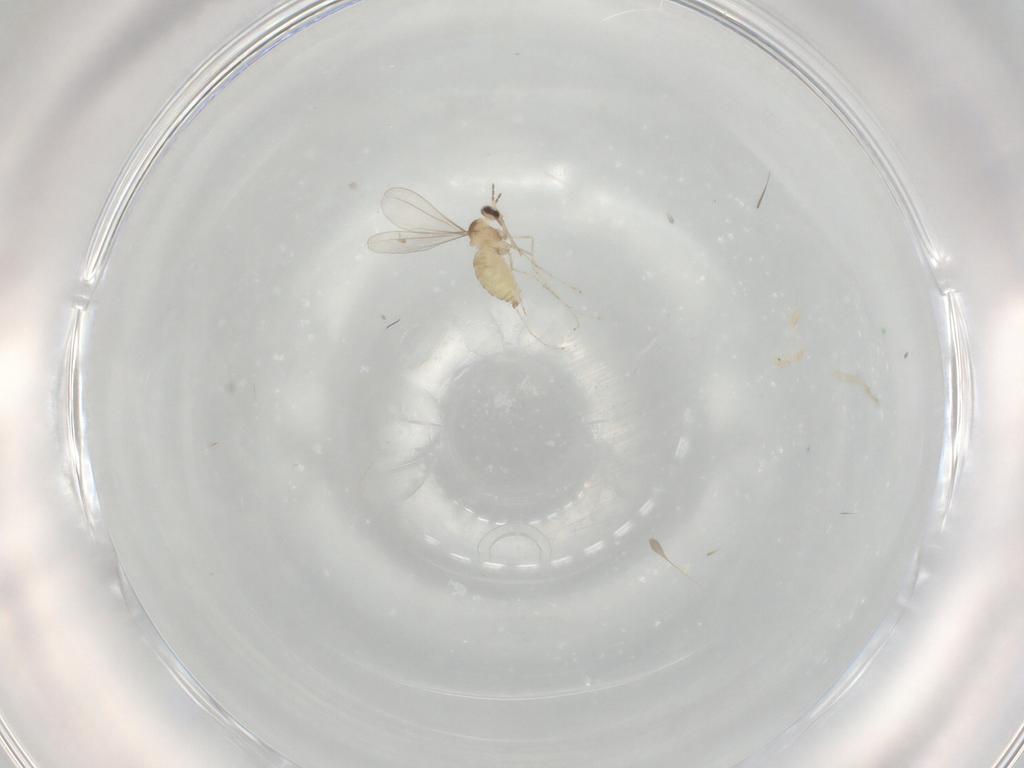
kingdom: Animalia
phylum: Arthropoda
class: Insecta
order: Diptera
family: Cecidomyiidae
